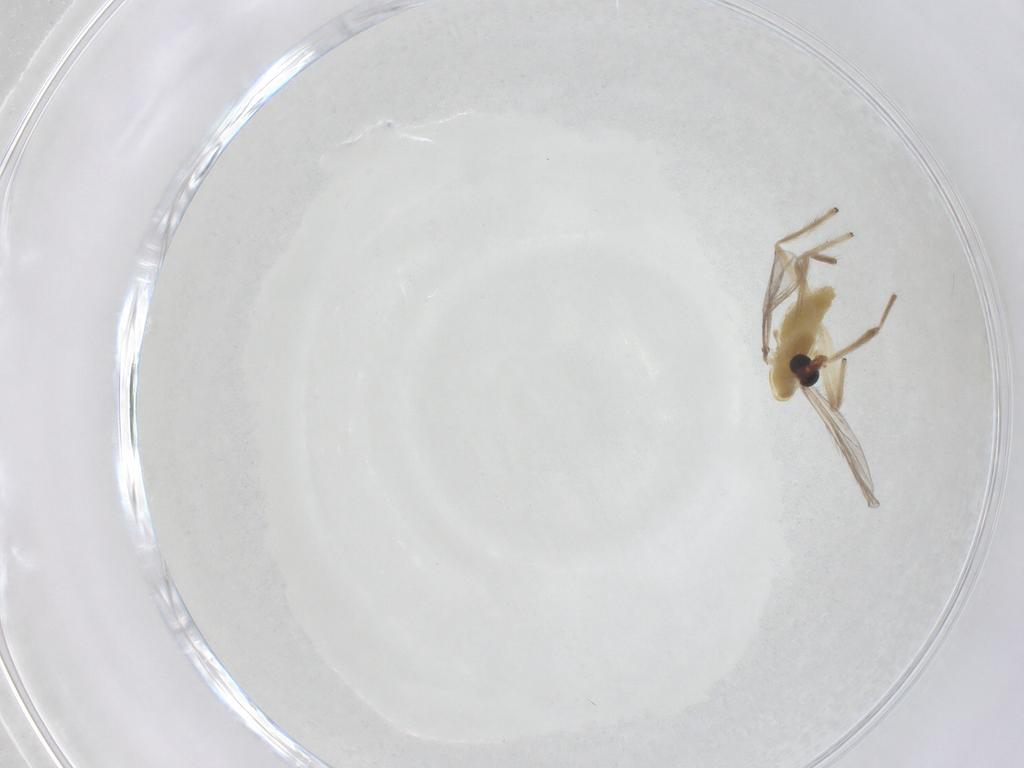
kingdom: Animalia
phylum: Arthropoda
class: Insecta
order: Diptera
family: Chironomidae
